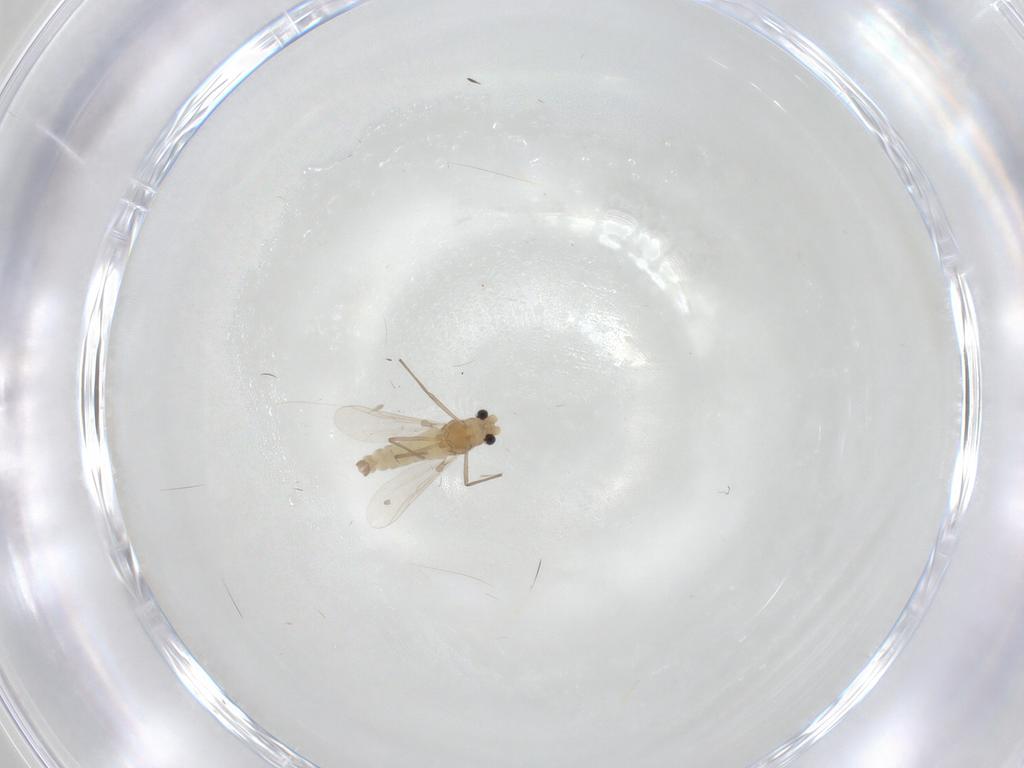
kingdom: Animalia
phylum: Arthropoda
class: Insecta
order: Diptera
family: Chironomidae
